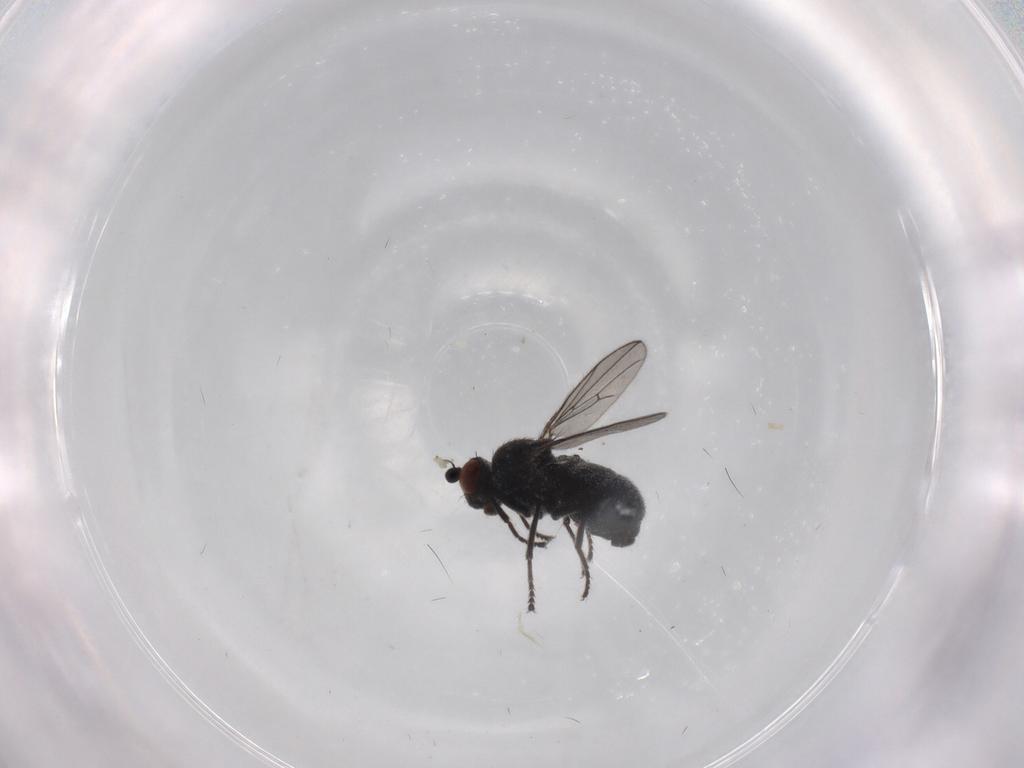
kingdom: Animalia
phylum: Arthropoda
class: Insecta
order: Diptera
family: Ephydridae
